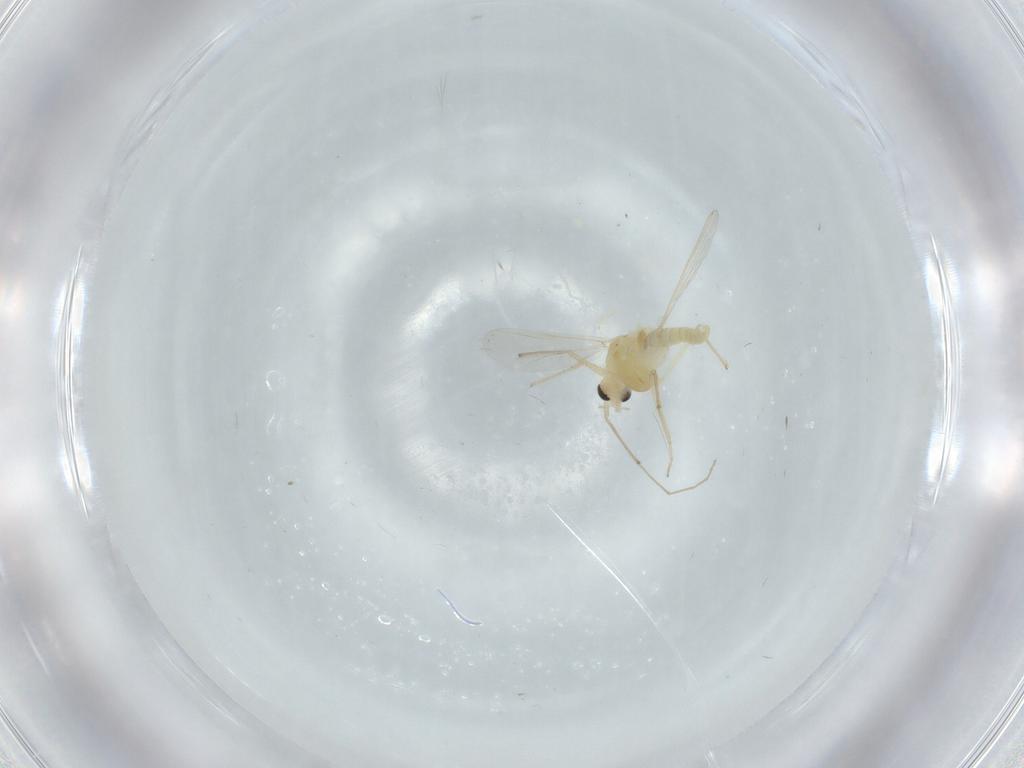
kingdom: Animalia
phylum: Arthropoda
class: Insecta
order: Diptera
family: Chironomidae
